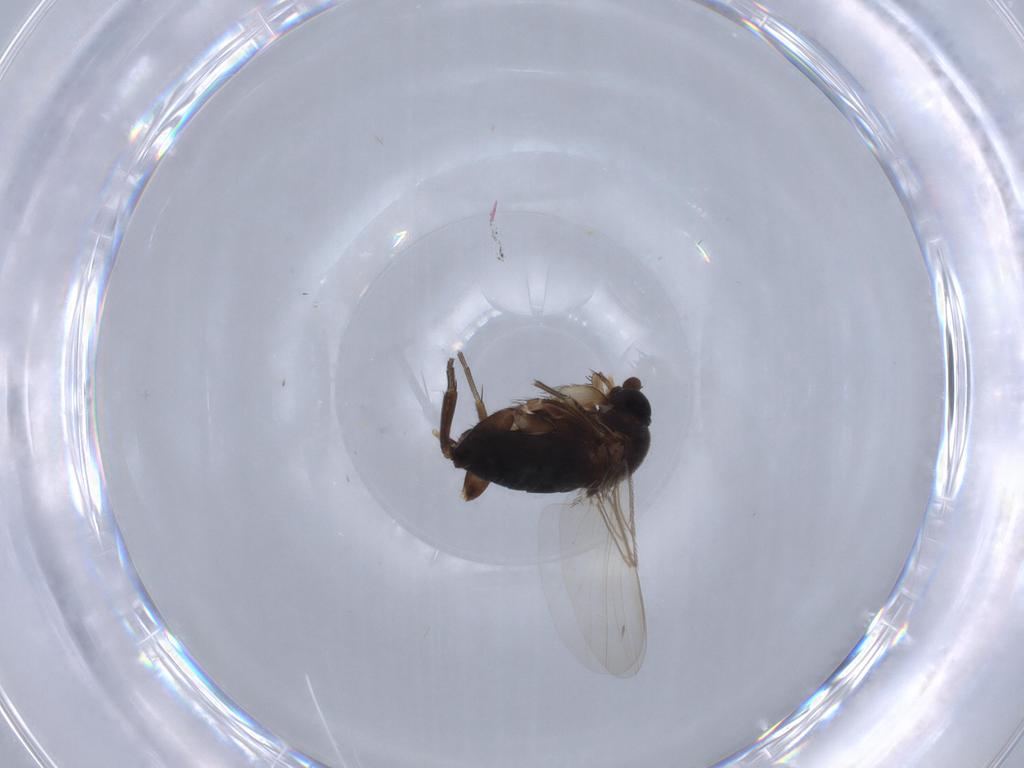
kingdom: Animalia
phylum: Arthropoda
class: Insecta
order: Diptera
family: Phoridae
